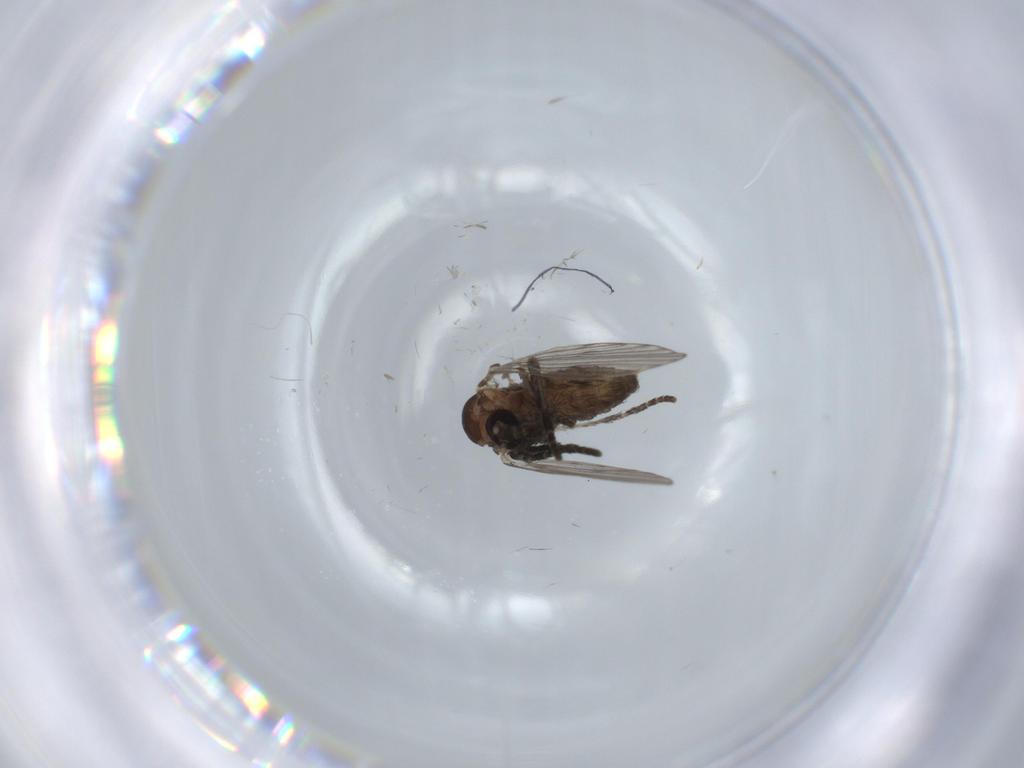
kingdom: Animalia
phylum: Arthropoda
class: Insecta
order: Diptera
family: Psychodidae
